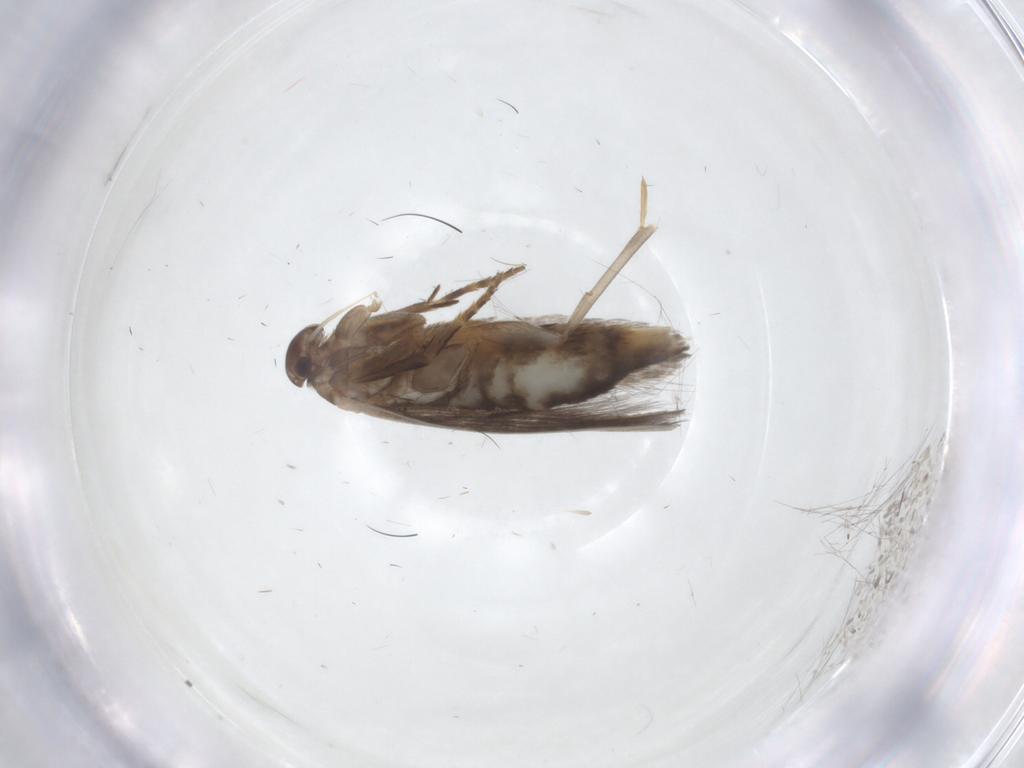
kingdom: Animalia
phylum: Arthropoda
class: Insecta
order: Lepidoptera
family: Elachistidae
